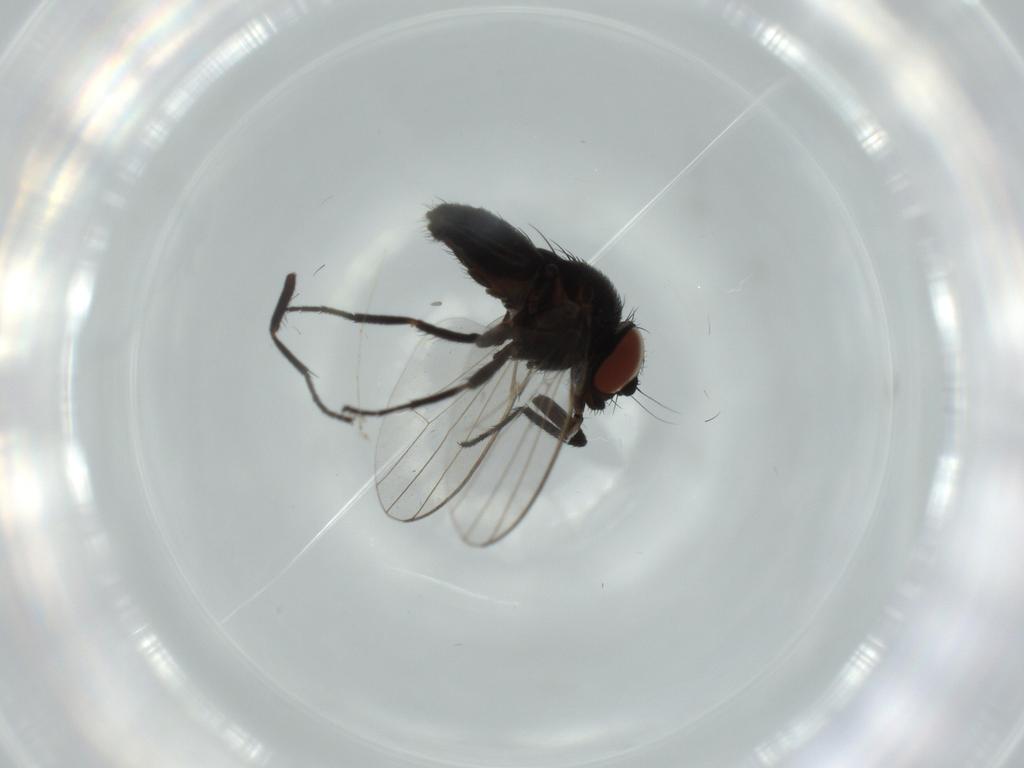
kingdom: Animalia
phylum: Arthropoda
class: Insecta
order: Diptera
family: Milichiidae
